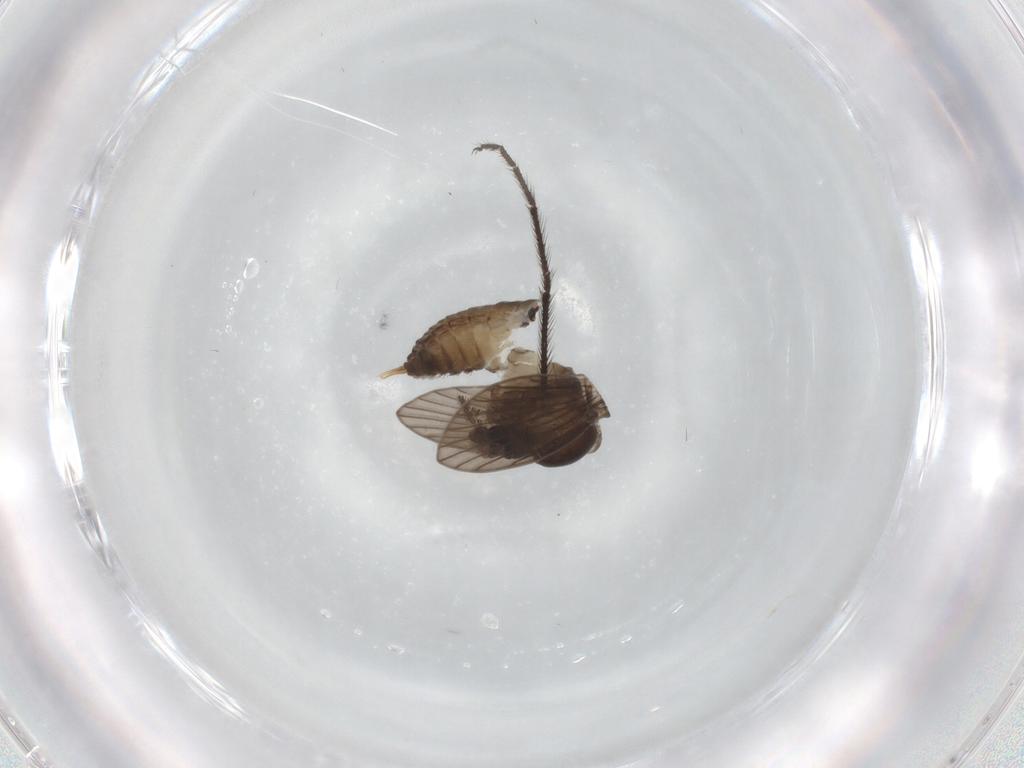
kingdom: Animalia
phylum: Arthropoda
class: Insecta
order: Diptera
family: Psychodidae
